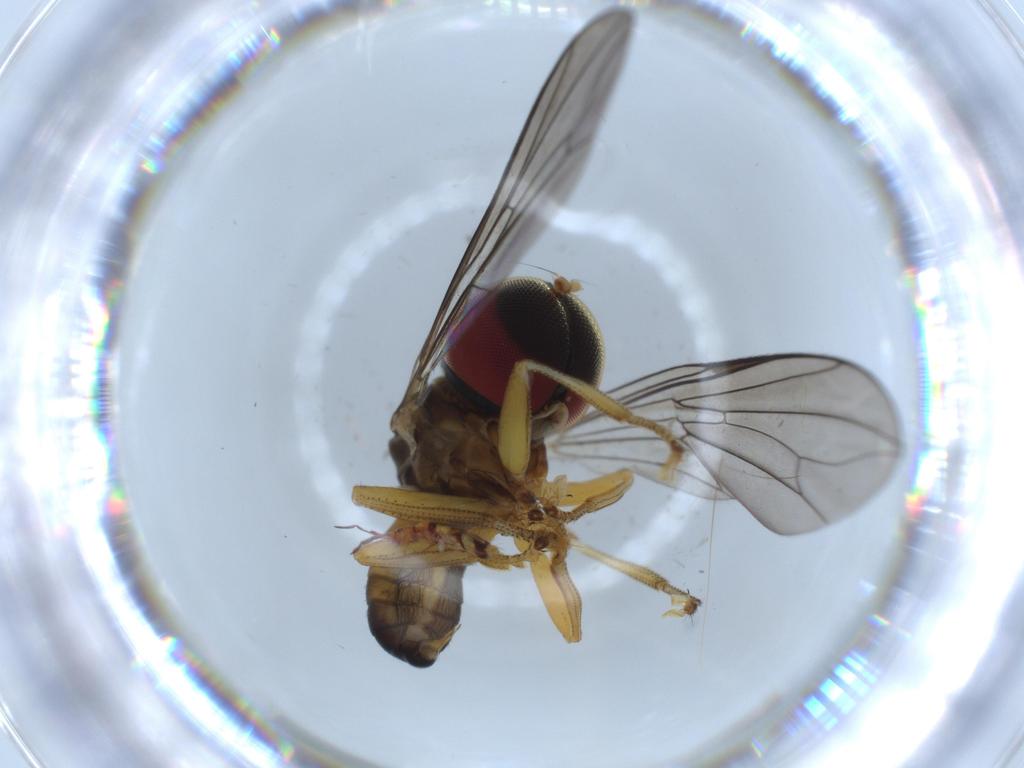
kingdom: Animalia
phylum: Arthropoda
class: Insecta
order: Diptera
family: Pipunculidae
